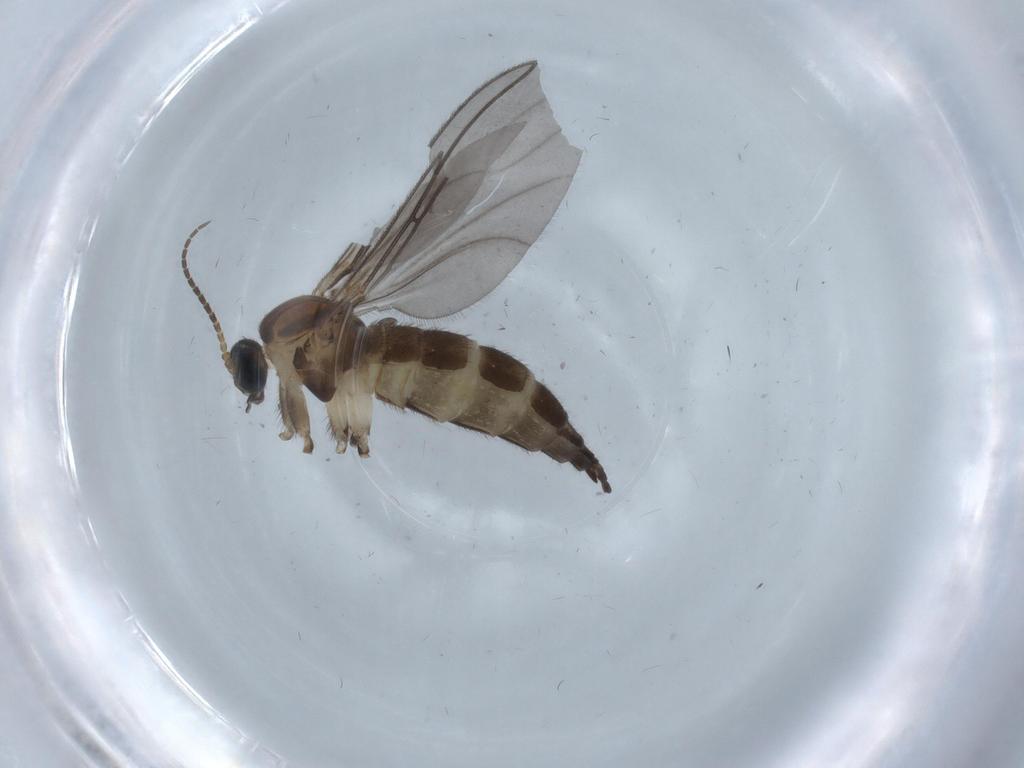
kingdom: Animalia
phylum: Arthropoda
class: Insecta
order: Diptera
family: Sciaridae
